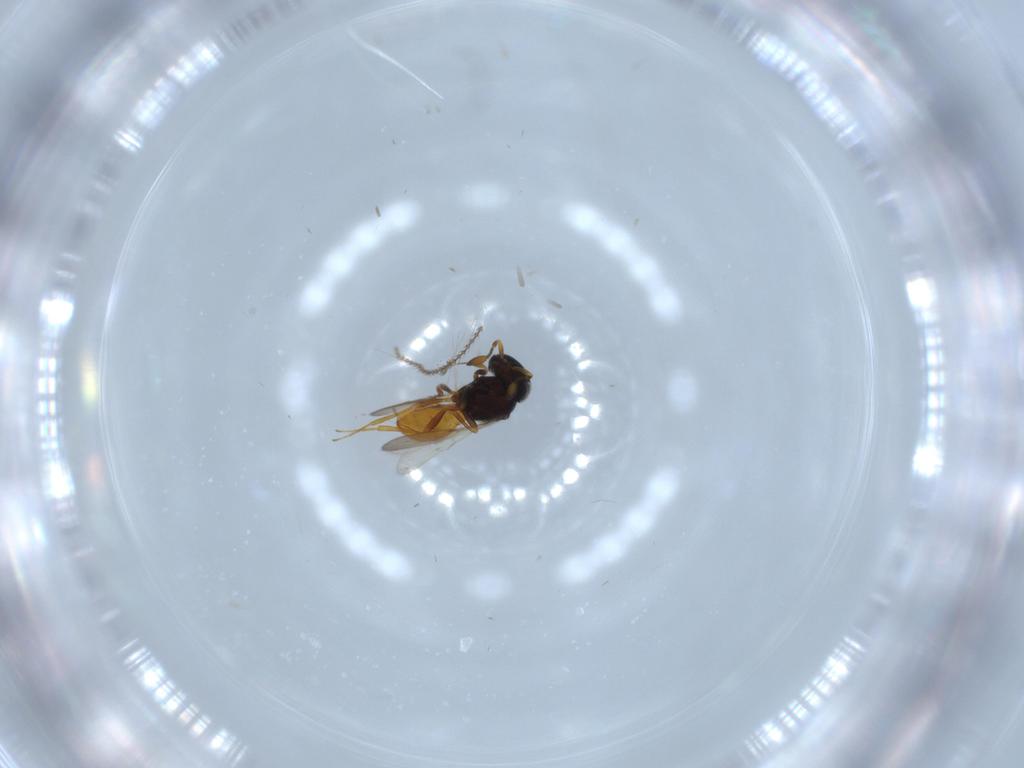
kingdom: Animalia
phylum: Arthropoda
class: Insecta
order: Hymenoptera
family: Scelionidae
